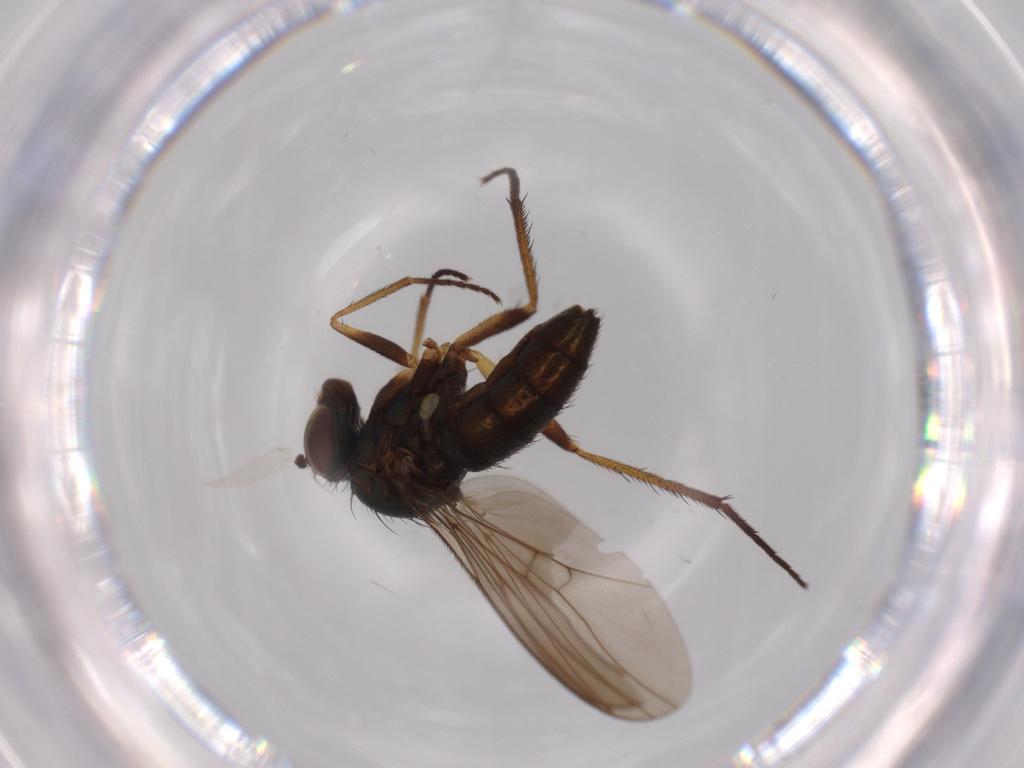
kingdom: Animalia
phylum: Arthropoda
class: Insecta
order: Diptera
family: Dolichopodidae
